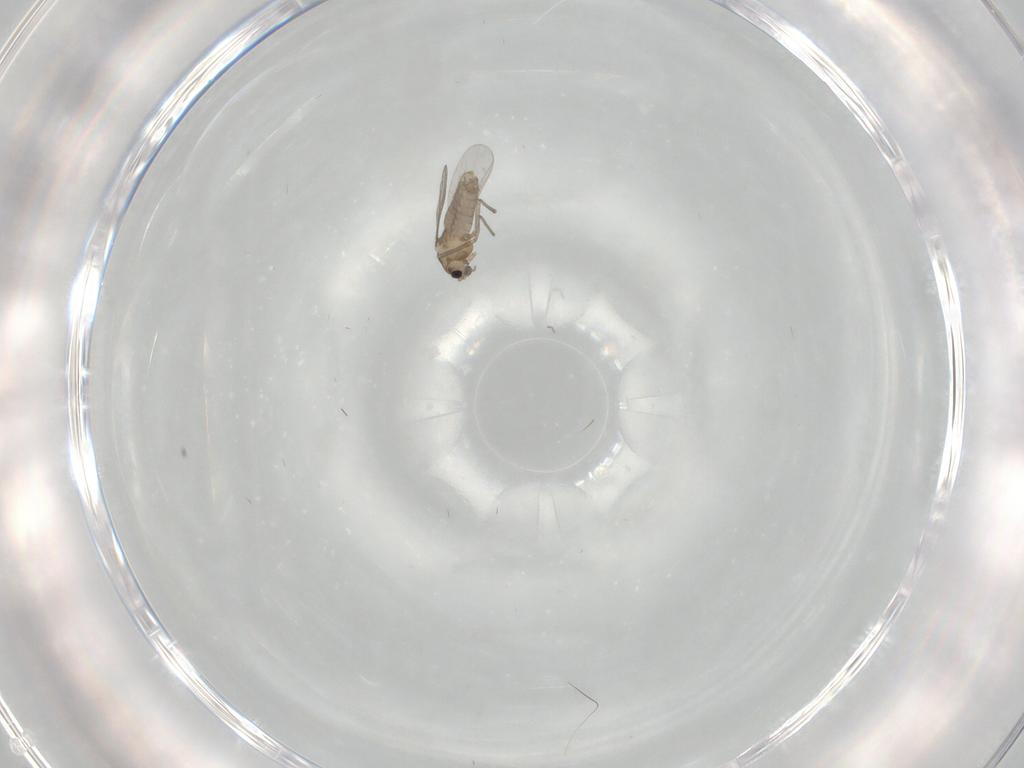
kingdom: Animalia
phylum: Arthropoda
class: Insecta
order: Diptera
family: Chironomidae
